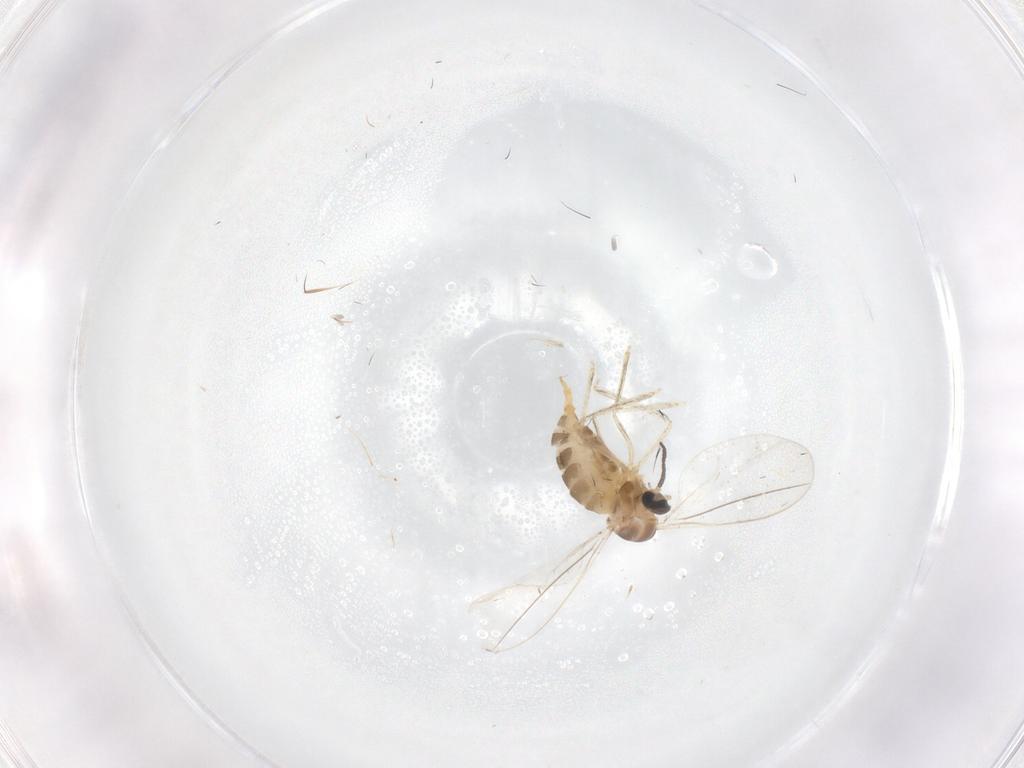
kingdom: Animalia
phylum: Arthropoda
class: Insecta
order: Diptera
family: Cecidomyiidae
